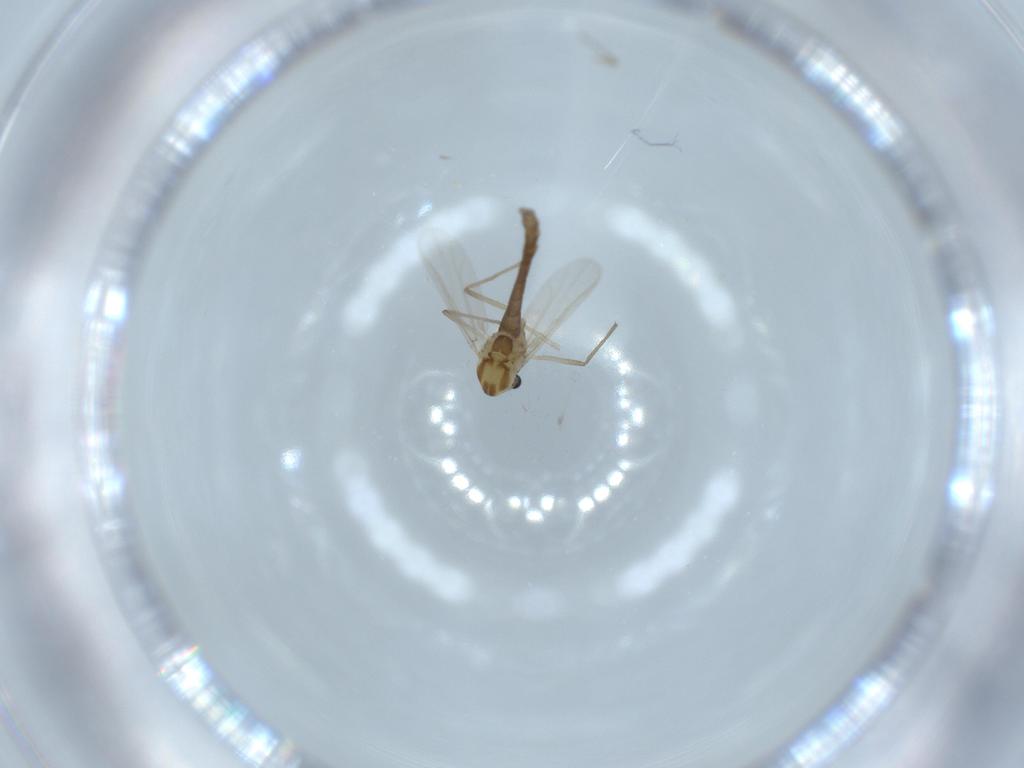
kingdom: Animalia
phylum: Arthropoda
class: Insecta
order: Diptera
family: Chironomidae
